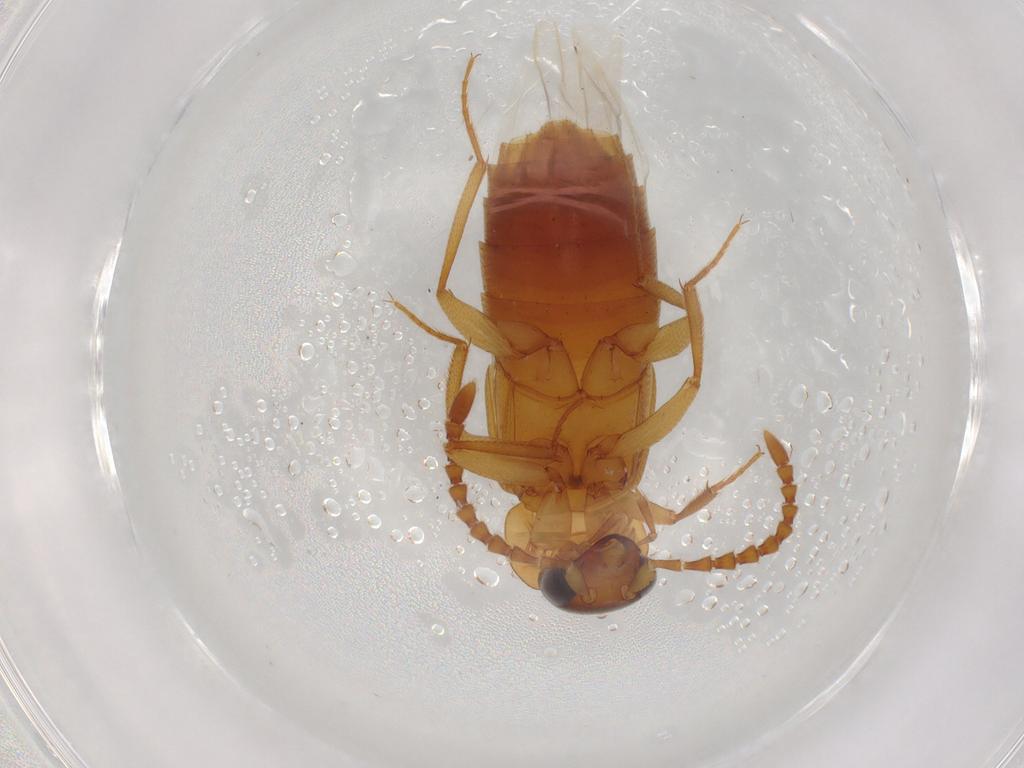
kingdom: Animalia
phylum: Arthropoda
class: Insecta
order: Coleoptera
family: Staphylinidae
